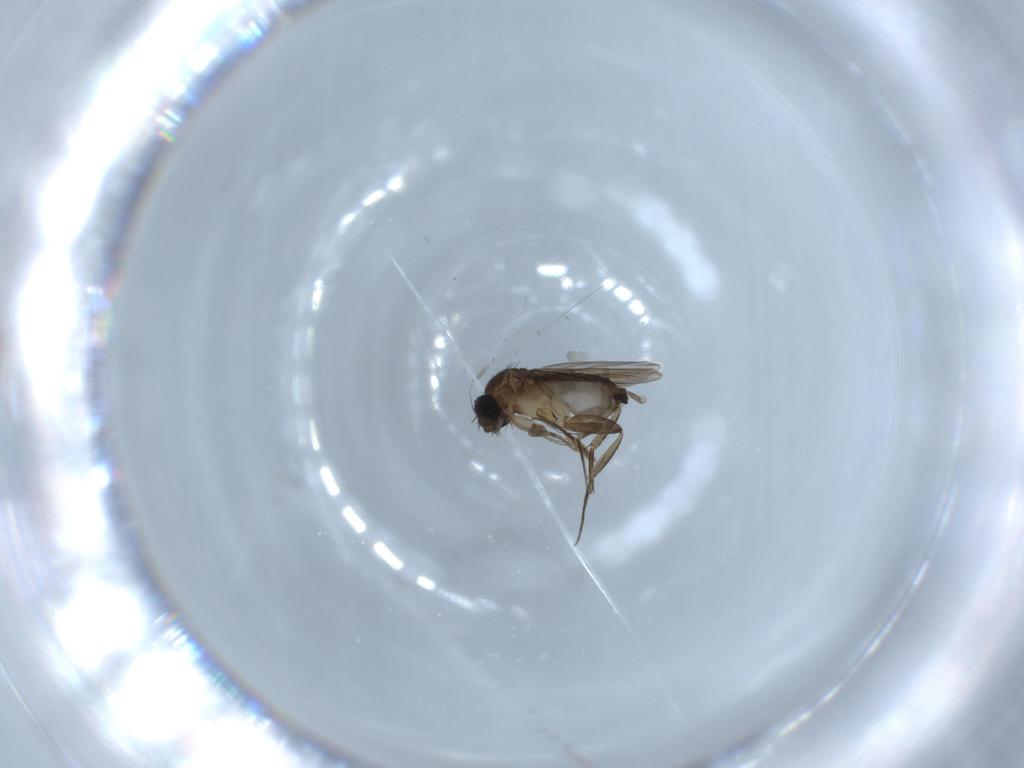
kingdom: Animalia
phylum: Arthropoda
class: Insecta
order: Diptera
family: Phoridae
